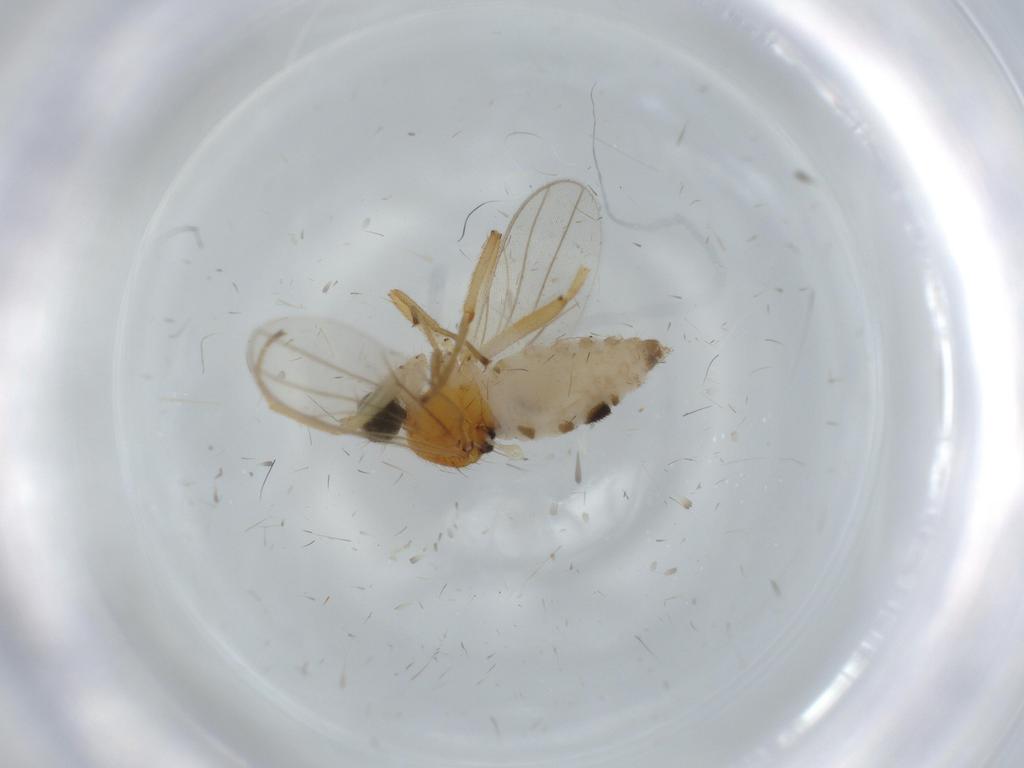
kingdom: Animalia
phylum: Arthropoda
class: Insecta
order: Diptera
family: Hybotidae
